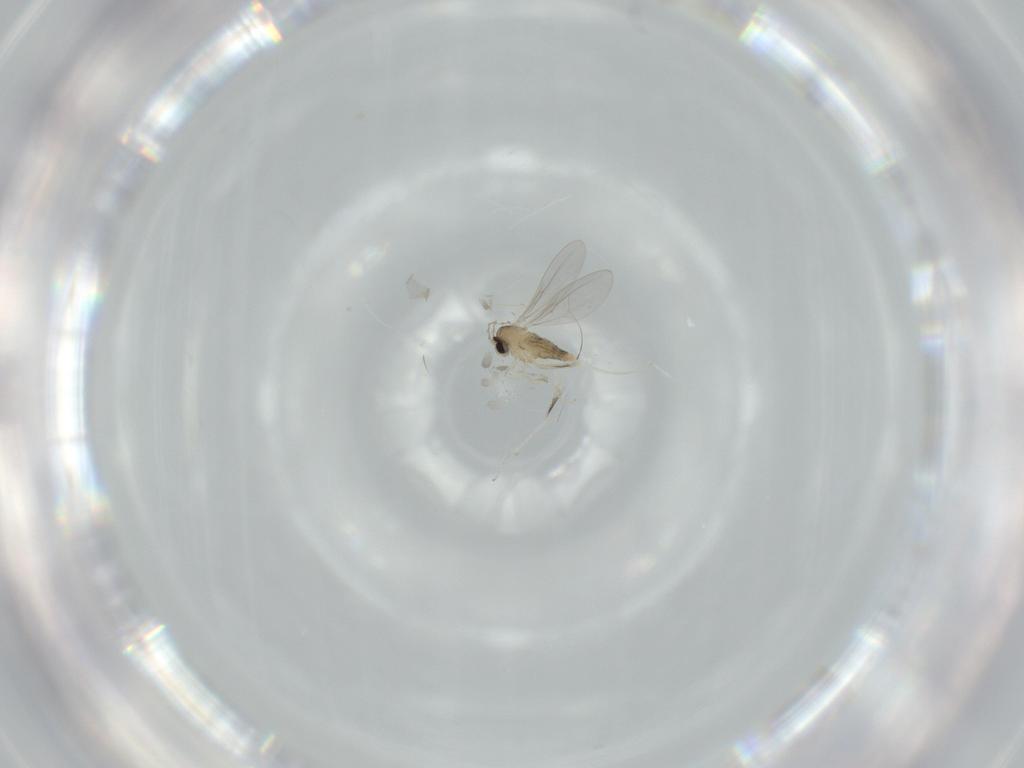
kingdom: Animalia
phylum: Arthropoda
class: Insecta
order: Diptera
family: Cecidomyiidae
